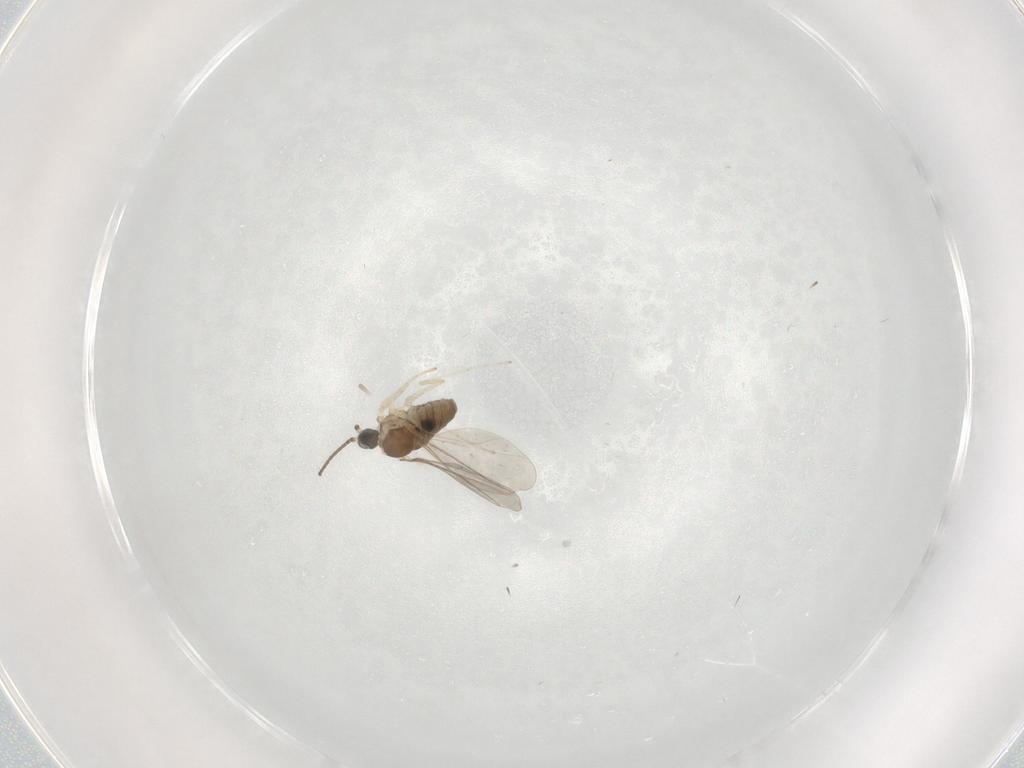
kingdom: Animalia
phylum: Arthropoda
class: Insecta
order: Diptera
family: Cecidomyiidae
